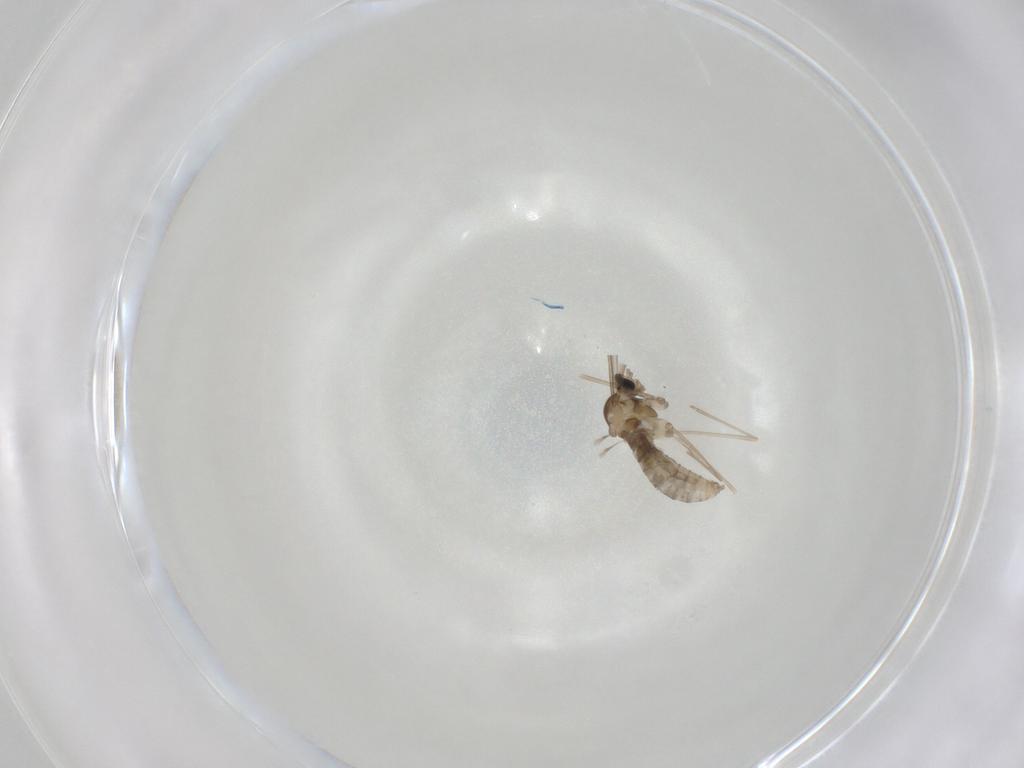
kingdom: Animalia
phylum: Arthropoda
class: Insecta
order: Diptera
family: Cecidomyiidae
